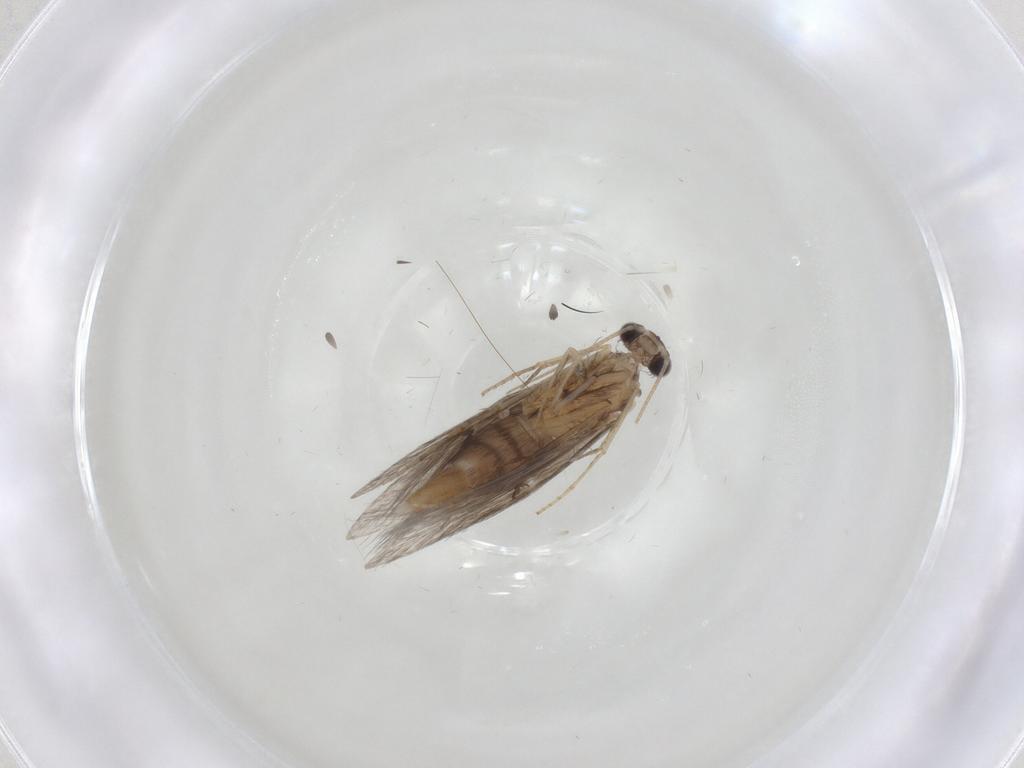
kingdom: Animalia
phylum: Arthropoda
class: Insecta
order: Trichoptera
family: Hydroptilidae
